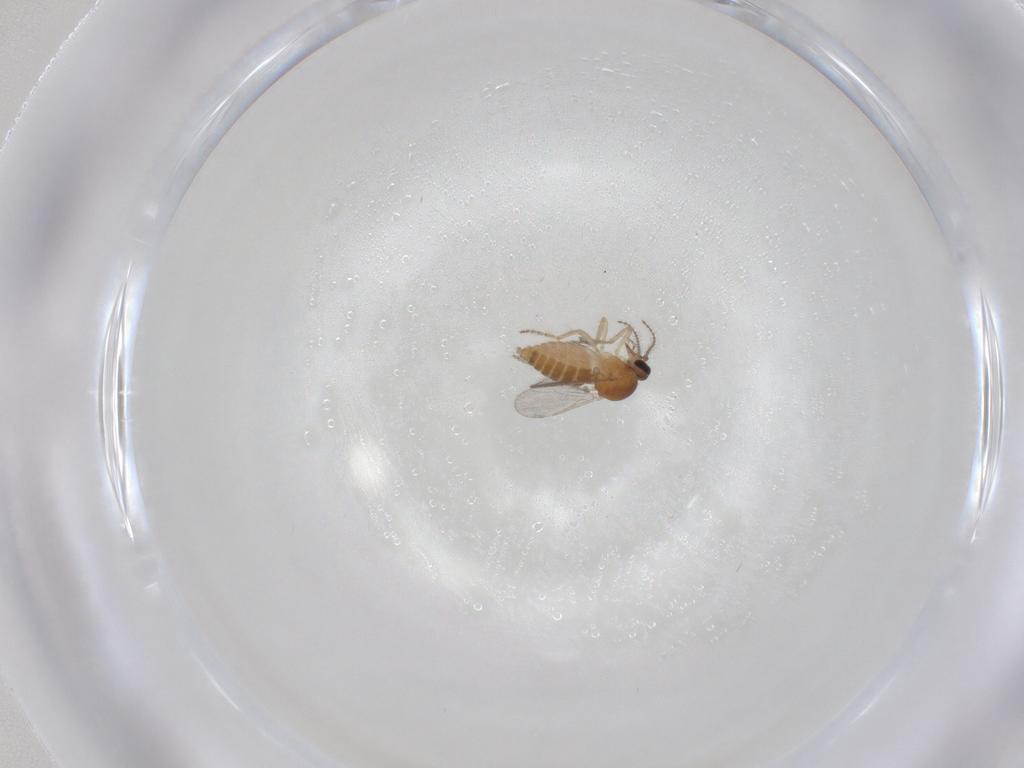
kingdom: Animalia
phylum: Arthropoda
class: Insecta
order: Diptera
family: Ceratopogonidae
